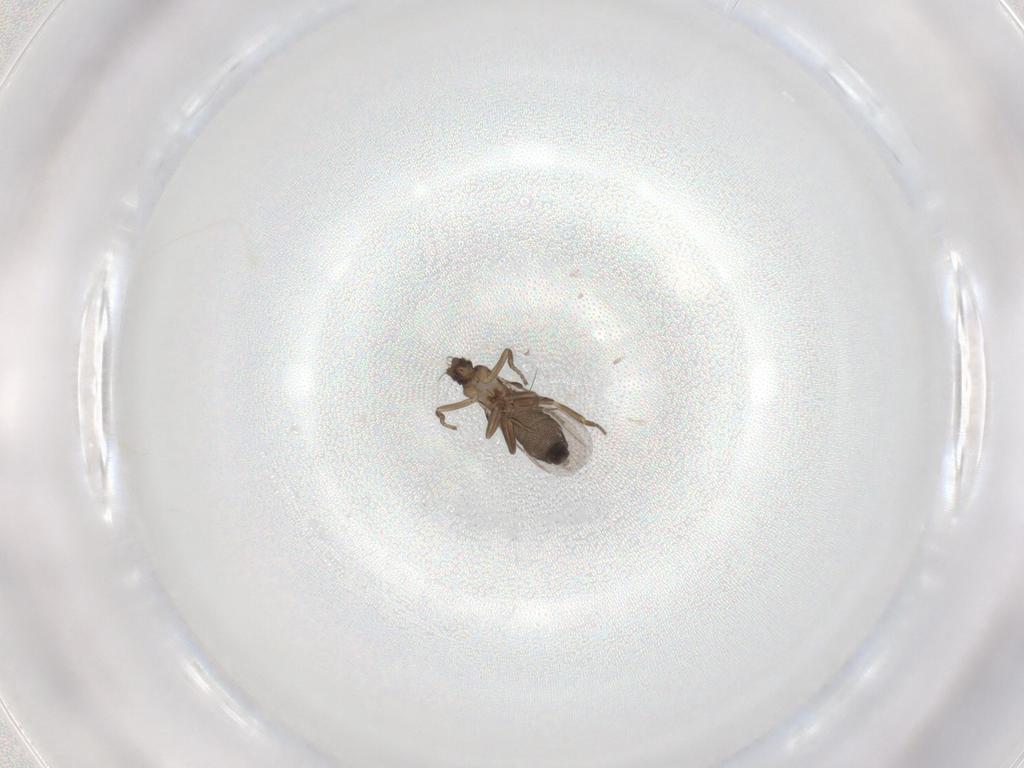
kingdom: Animalia
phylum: Arthropoda
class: Insecta
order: Diptera
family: Phoridae
